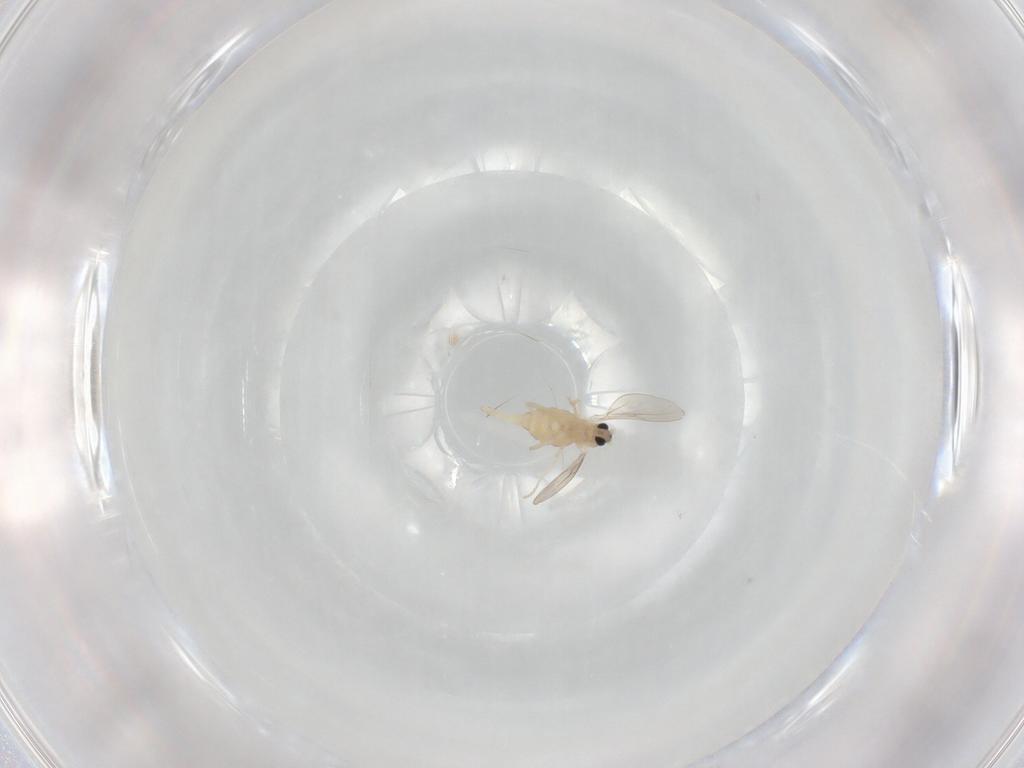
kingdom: Animalia
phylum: Arthropoda
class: Insecta
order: Diptera
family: Cecidomyiidae
